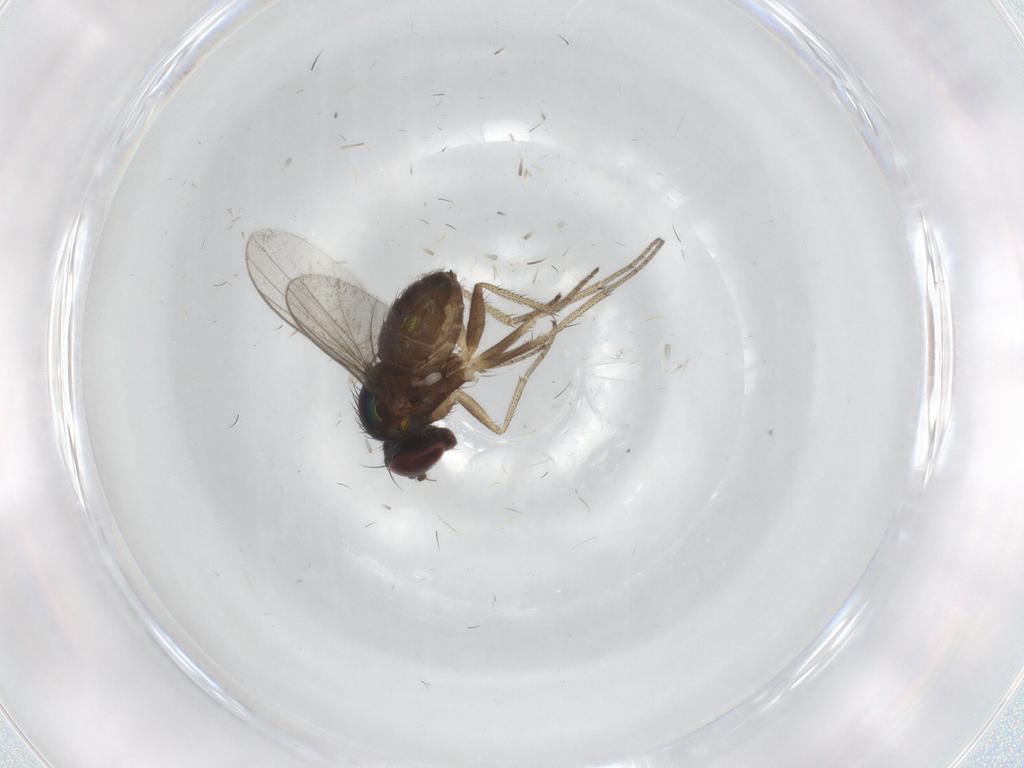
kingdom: Animalia
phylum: Arthropoda
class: Insecta
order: Diptera
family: Cecidomyiidae
